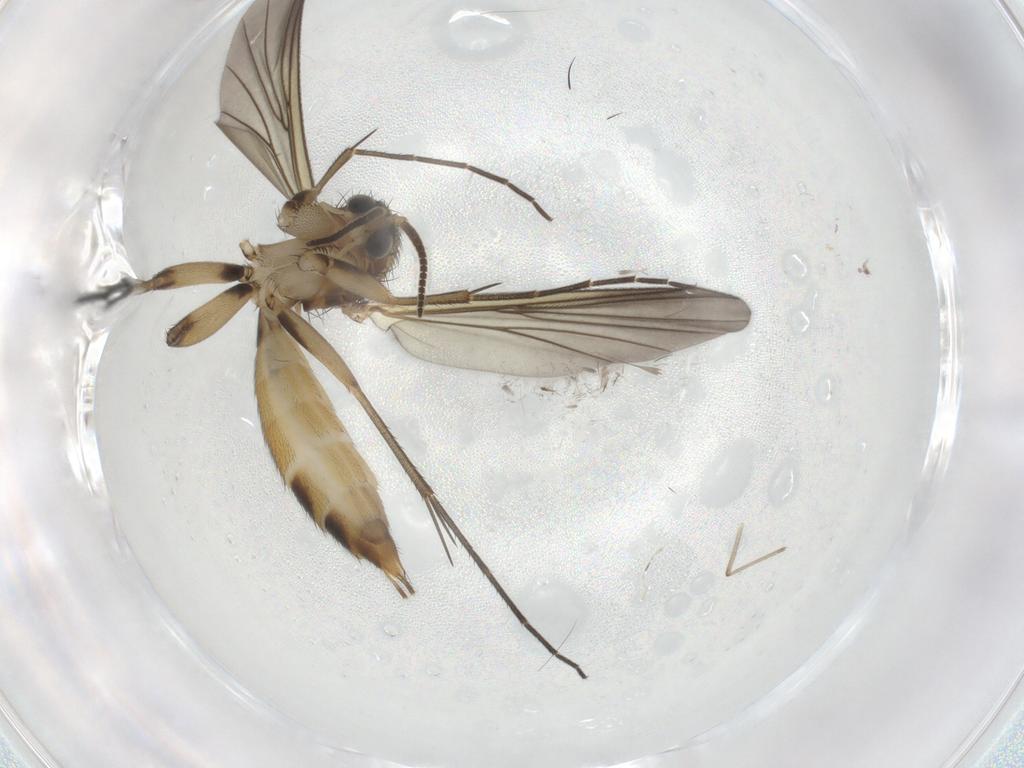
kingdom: Animalia
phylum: Arthropoda
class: Insecta
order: Diptera
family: Mycetophilidae
